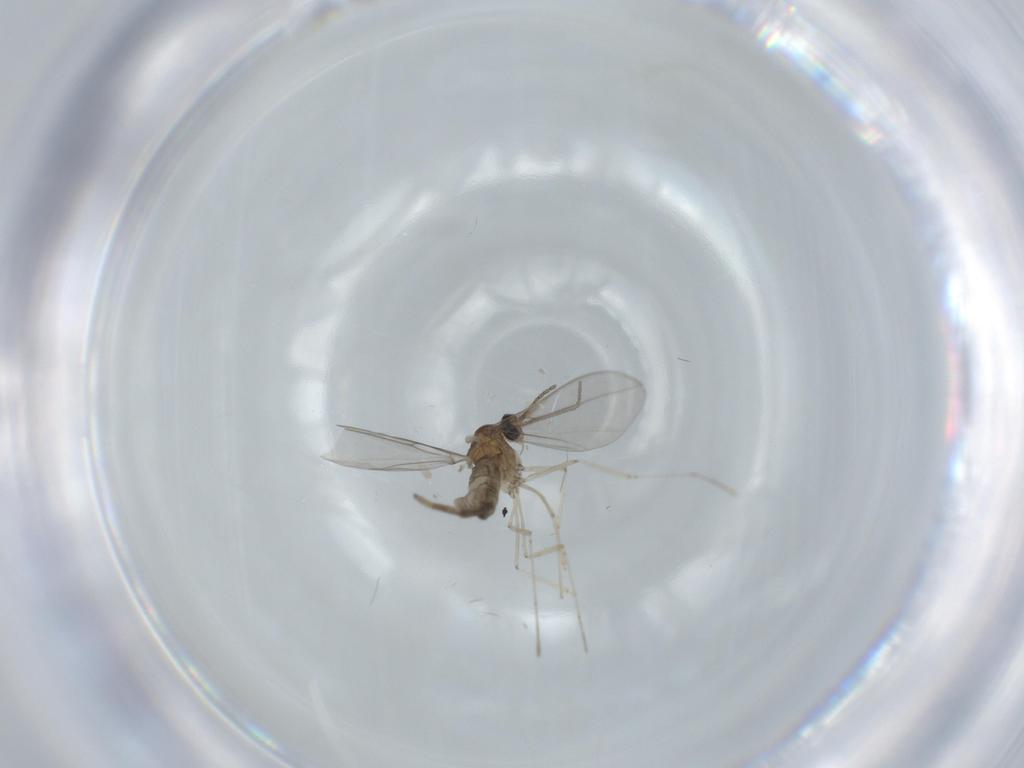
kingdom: Animalia
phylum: Arthropoda
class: Insecta
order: Diptera
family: Cecidomyiidae
